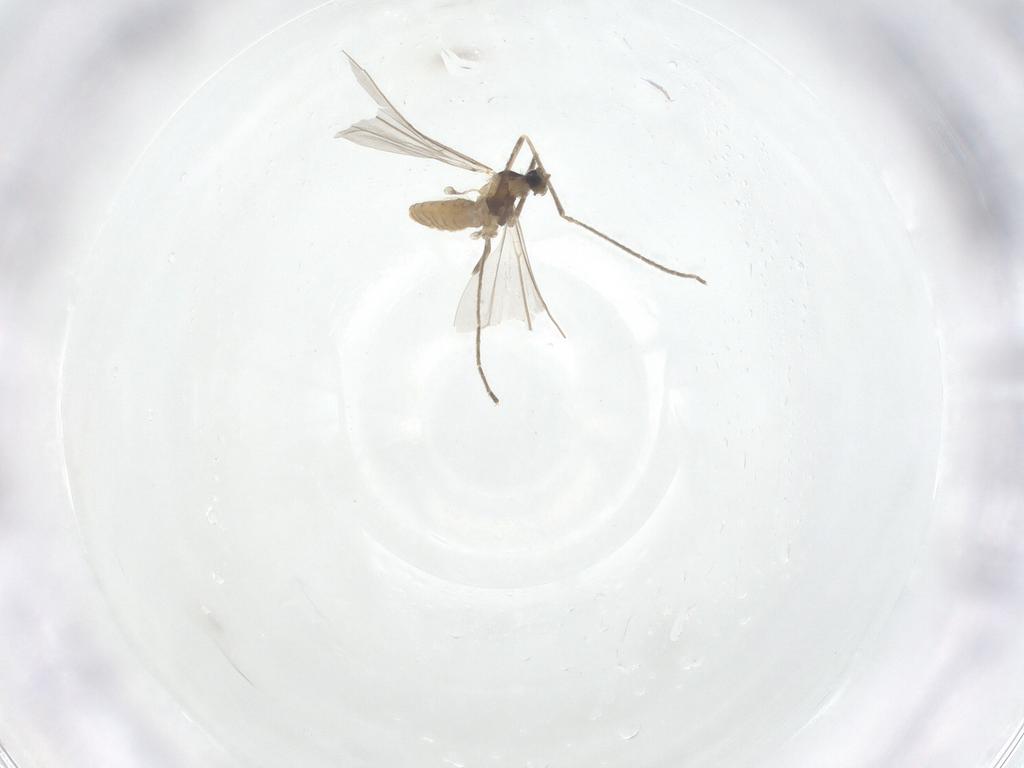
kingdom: Animalia
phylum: Arthropoda
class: Insecta
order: Diptera
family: Cecidomyiidae
